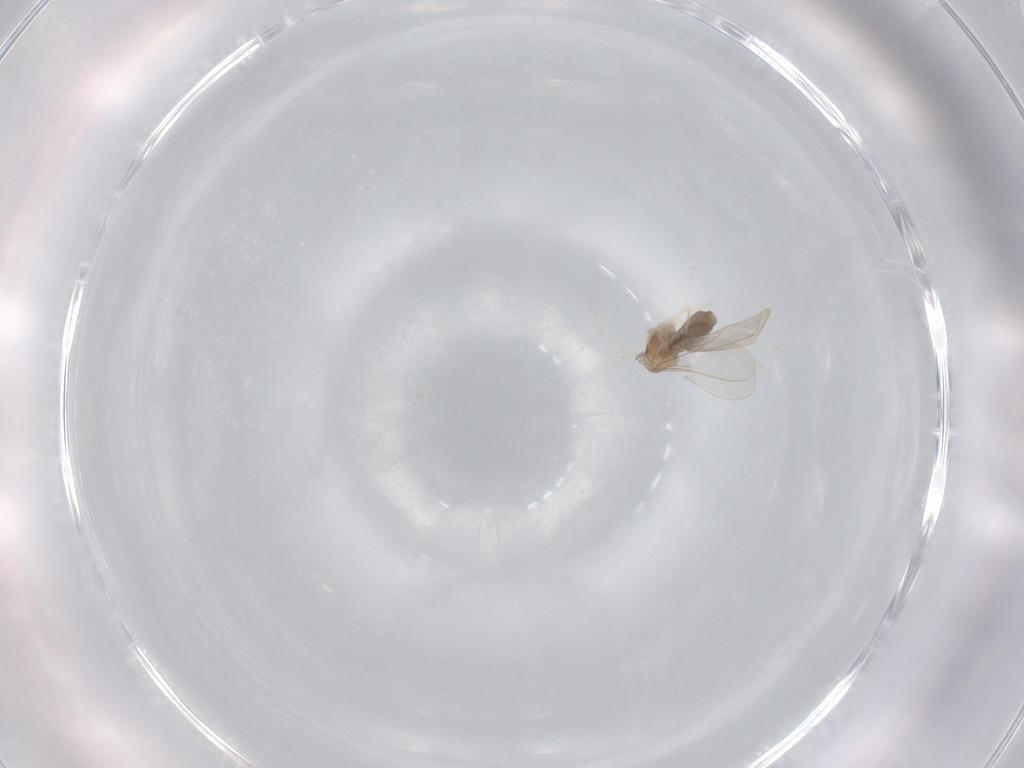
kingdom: Animalia
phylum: Arthropoda
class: Insecta
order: Diptera
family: Cecidomyiidae
